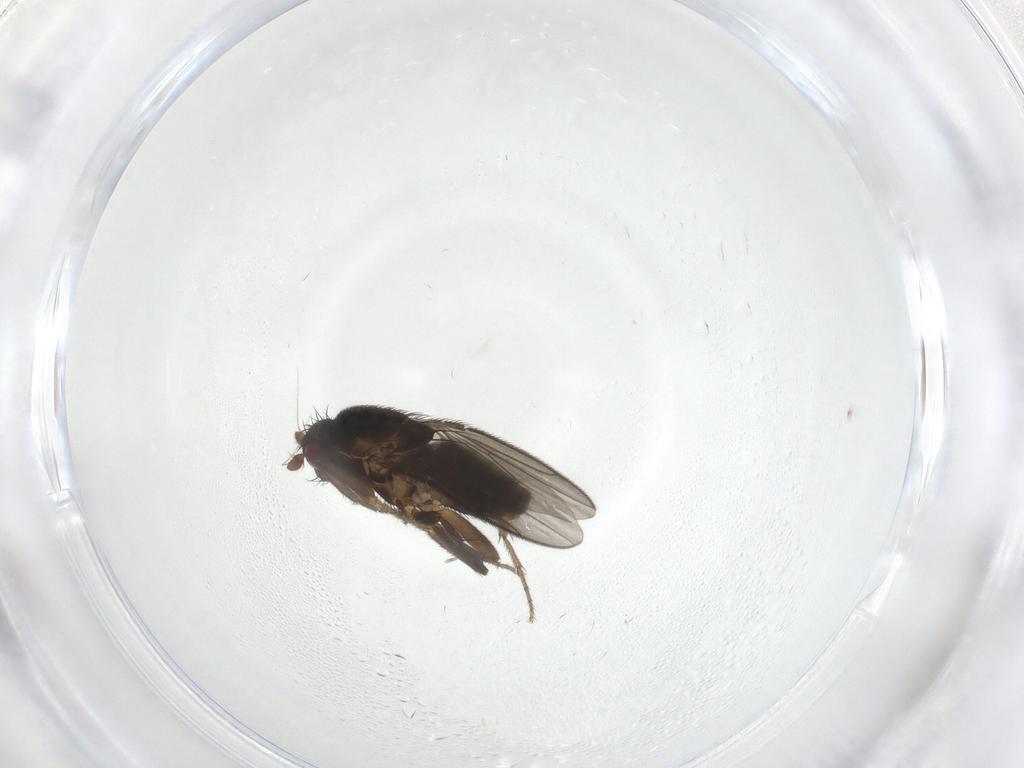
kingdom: Animalia
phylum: Arthropoda
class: Insecta
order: Diptera
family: Sphaeroceridae
